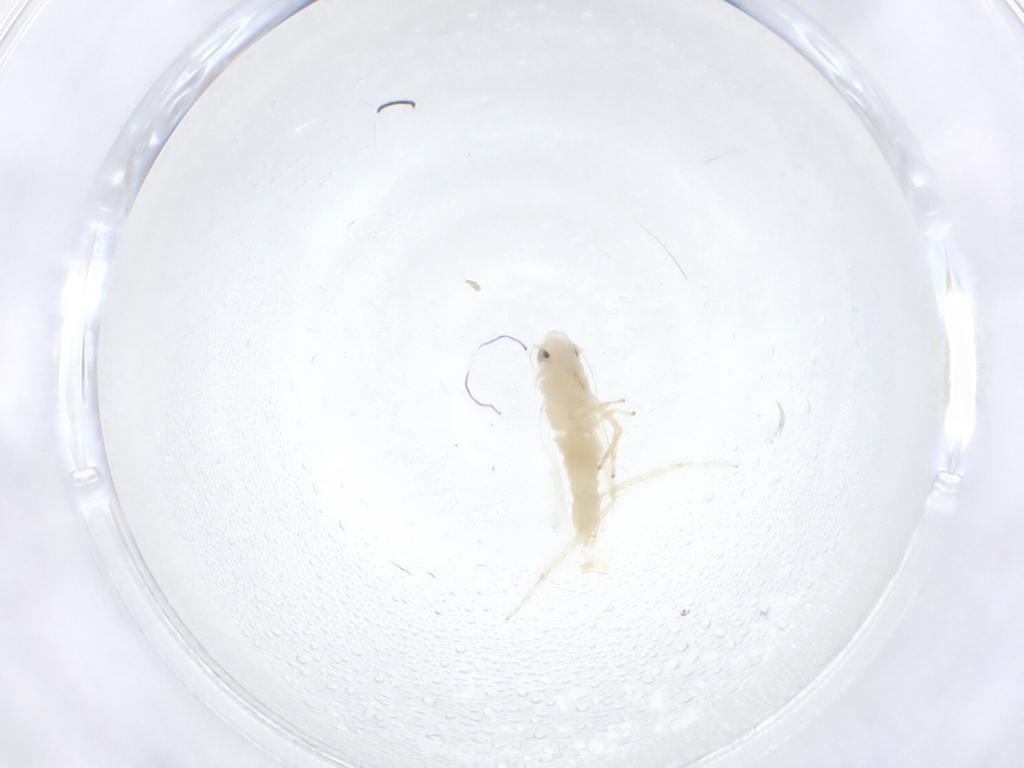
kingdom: Animalia
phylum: Arthropoda
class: Insecta
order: Hemiptera
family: Cicadellidae
